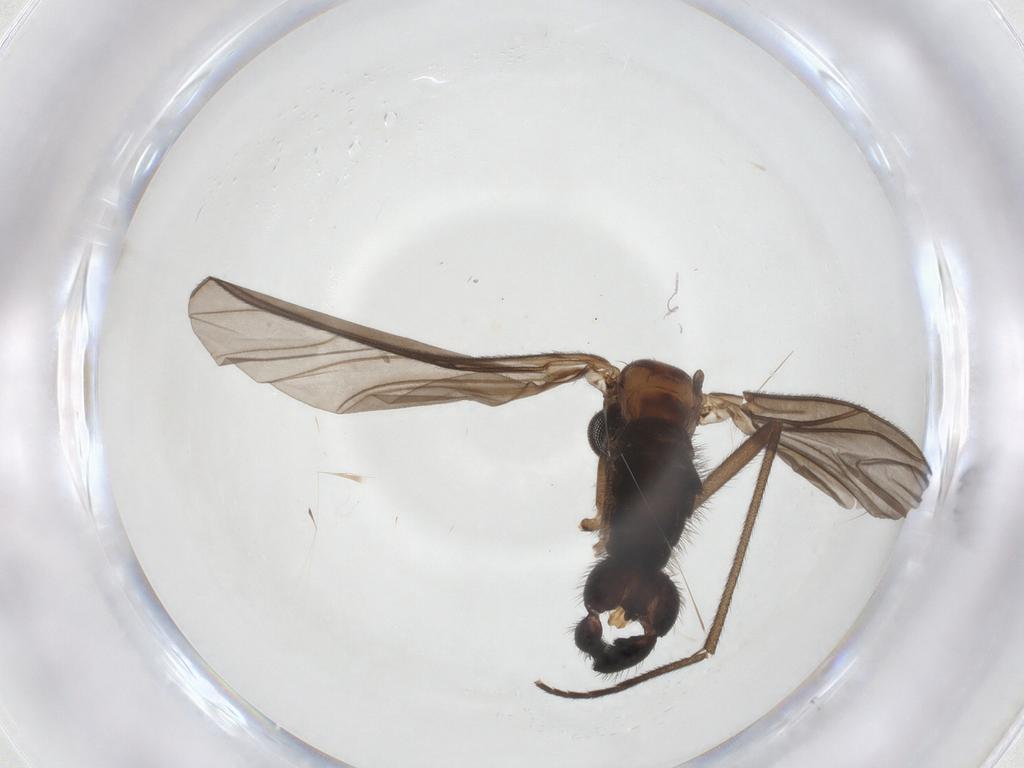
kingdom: Animalia
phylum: Arthropoda
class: Insecta
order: Diptera
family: Sciaridae
